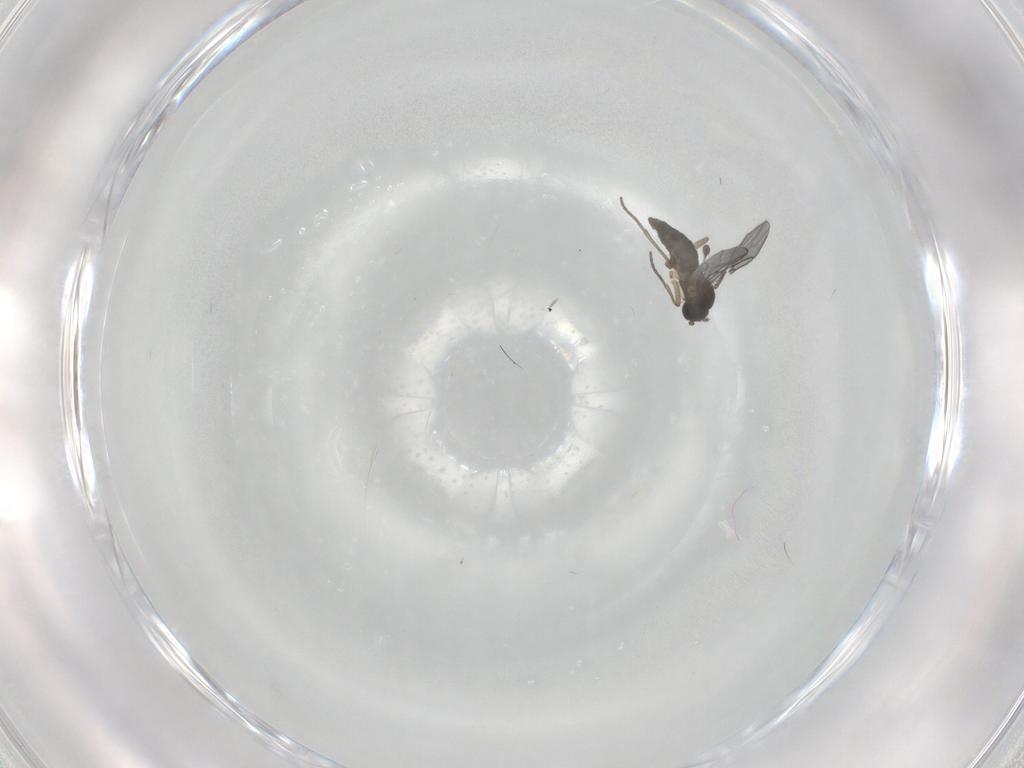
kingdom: Animalia
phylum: Arthropoda
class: Insecta
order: Diptera
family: Sciaridae
